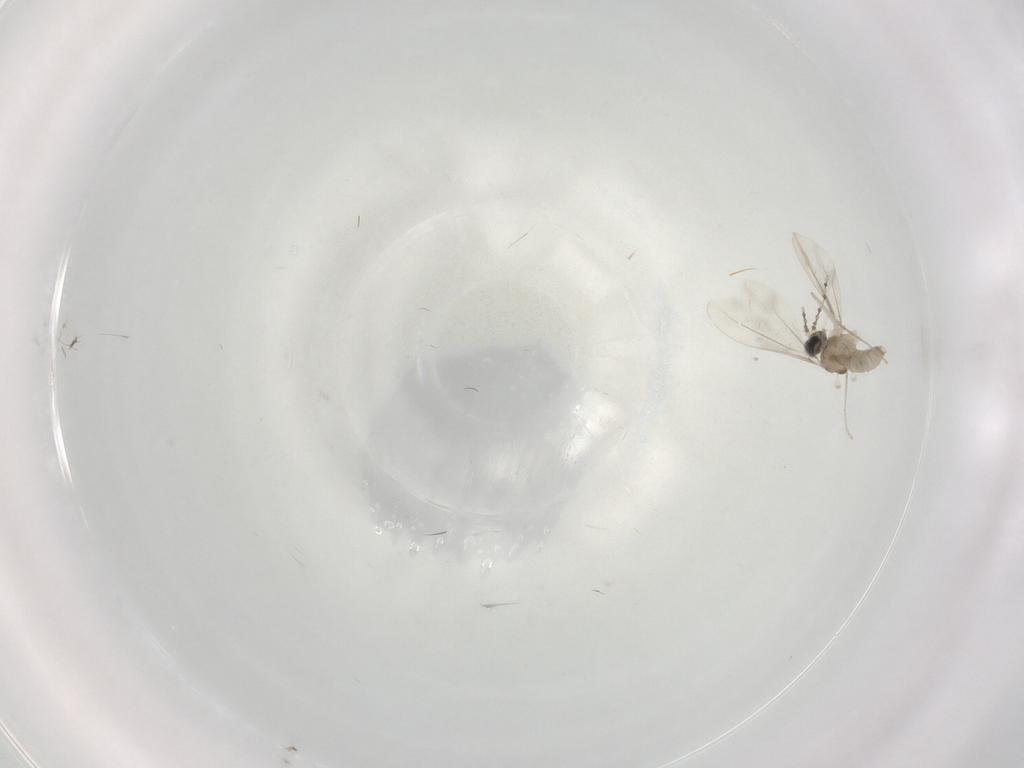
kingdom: Animalia
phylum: Arthropoda
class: Insecta
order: Diptera
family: Cecidomyiidae
